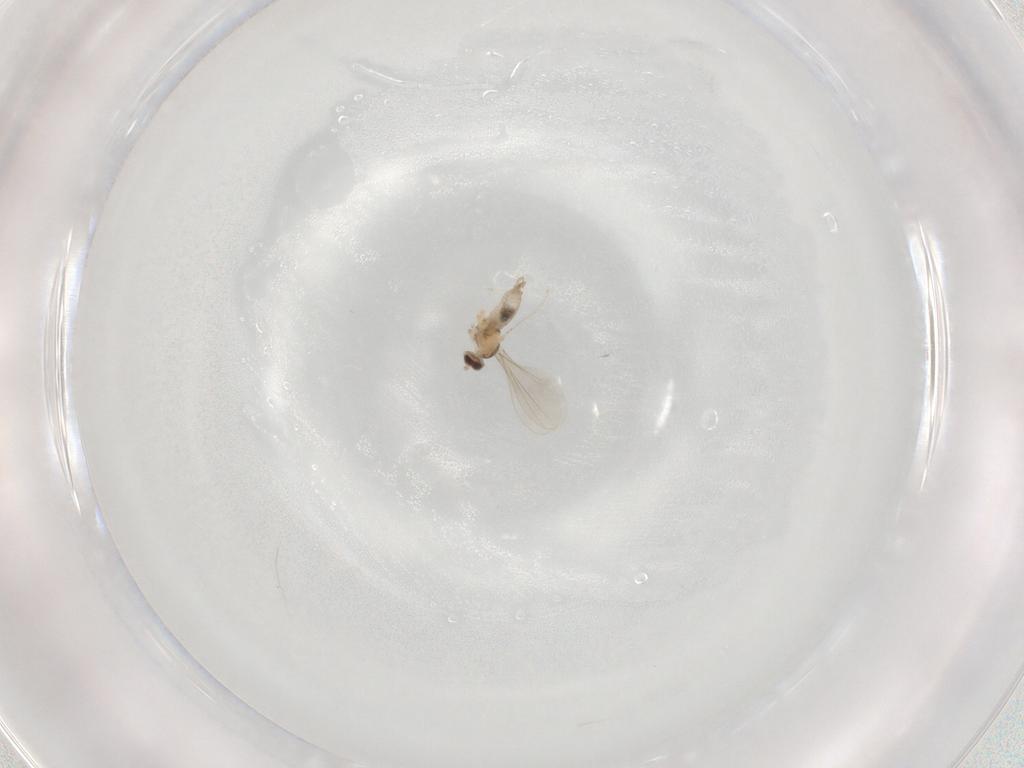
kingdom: Animalia
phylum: Arthropoda
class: Insecta
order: Diptera
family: Cecidomyiidae
